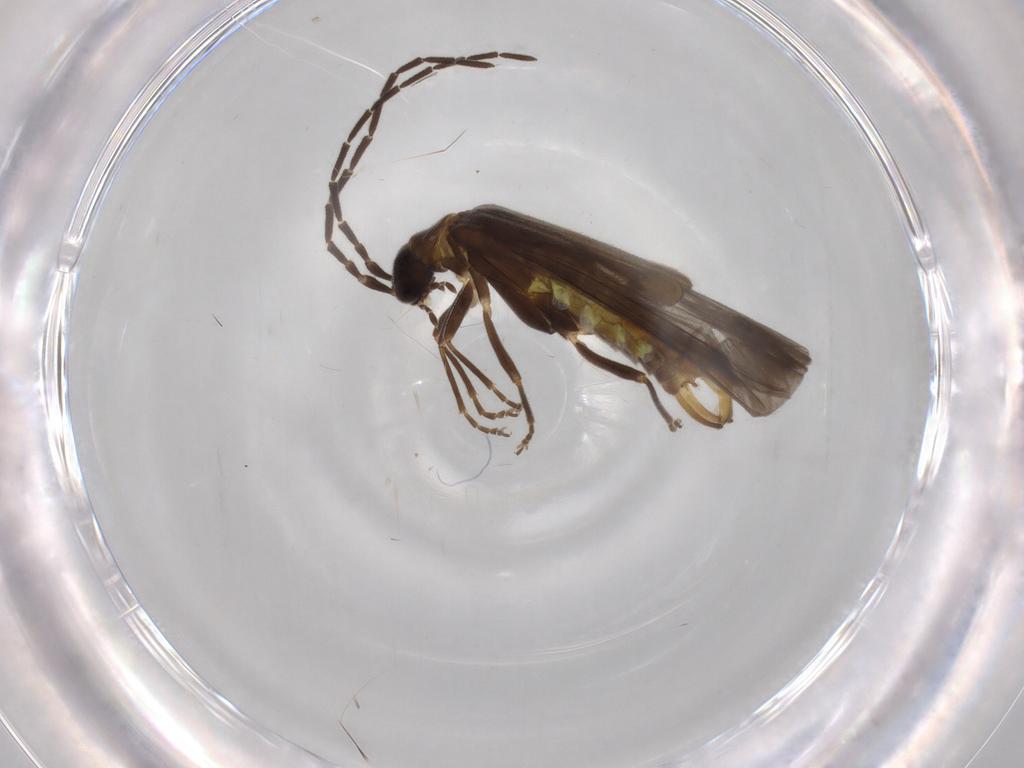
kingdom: Animalia
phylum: Arthropoda
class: Insecta
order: Coleoptera
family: Cantharidae
